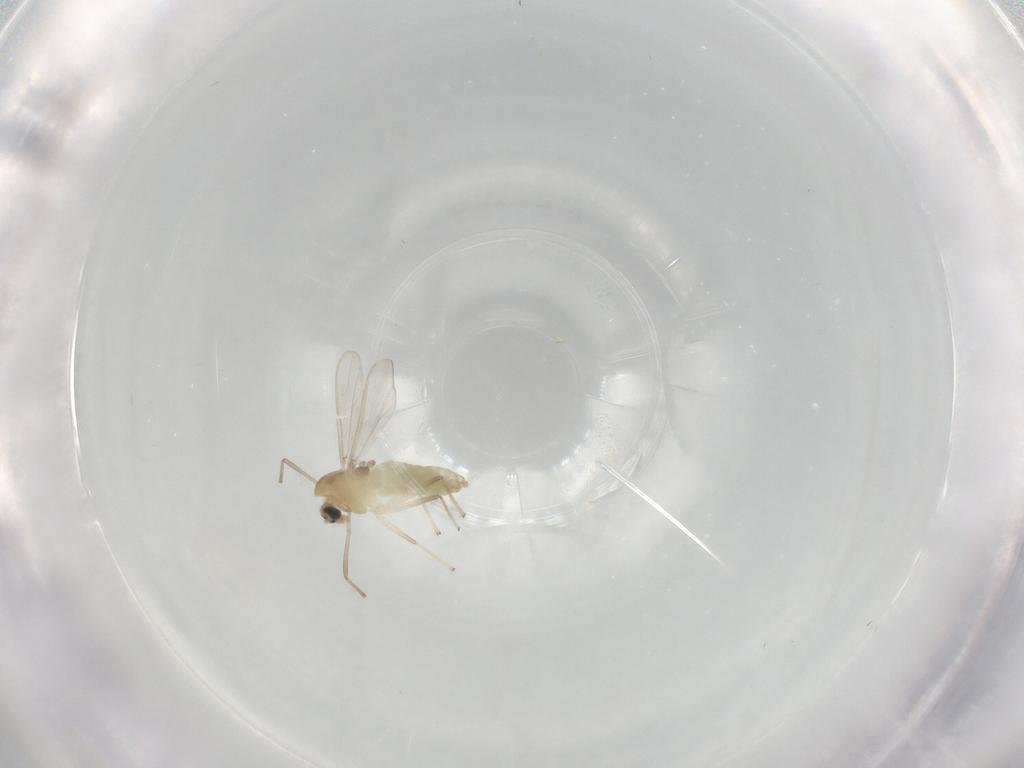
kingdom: Animalia
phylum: Arthropoda
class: Insecta
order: Diptera
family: Chironomidae
